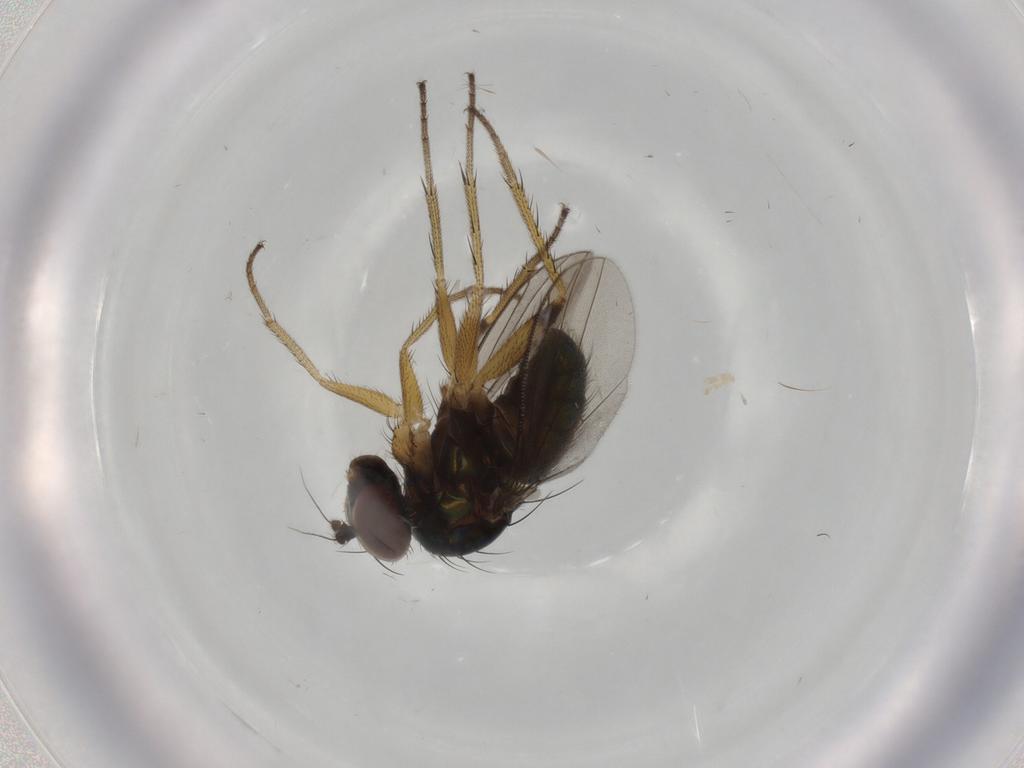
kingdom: Animalia
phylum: Arthropoda
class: Insecta
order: Diptera
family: Dolichopodidae
